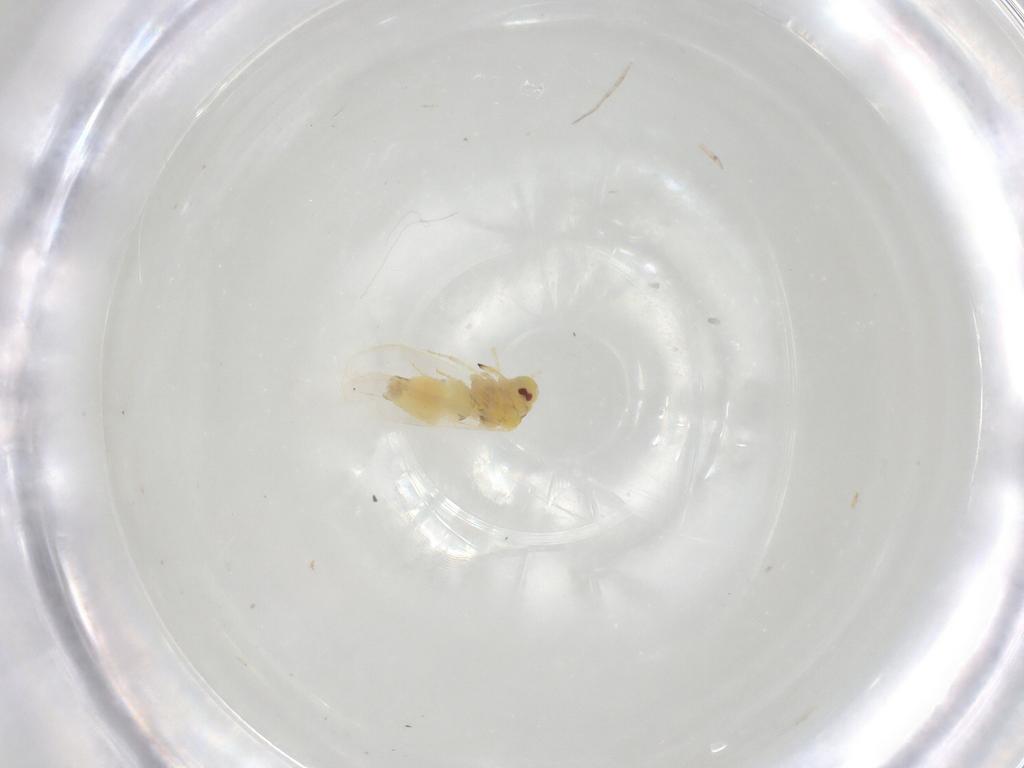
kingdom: Animalia
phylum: Arthropoda
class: Insecta
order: Hemiptera
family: Aleyrodidae
